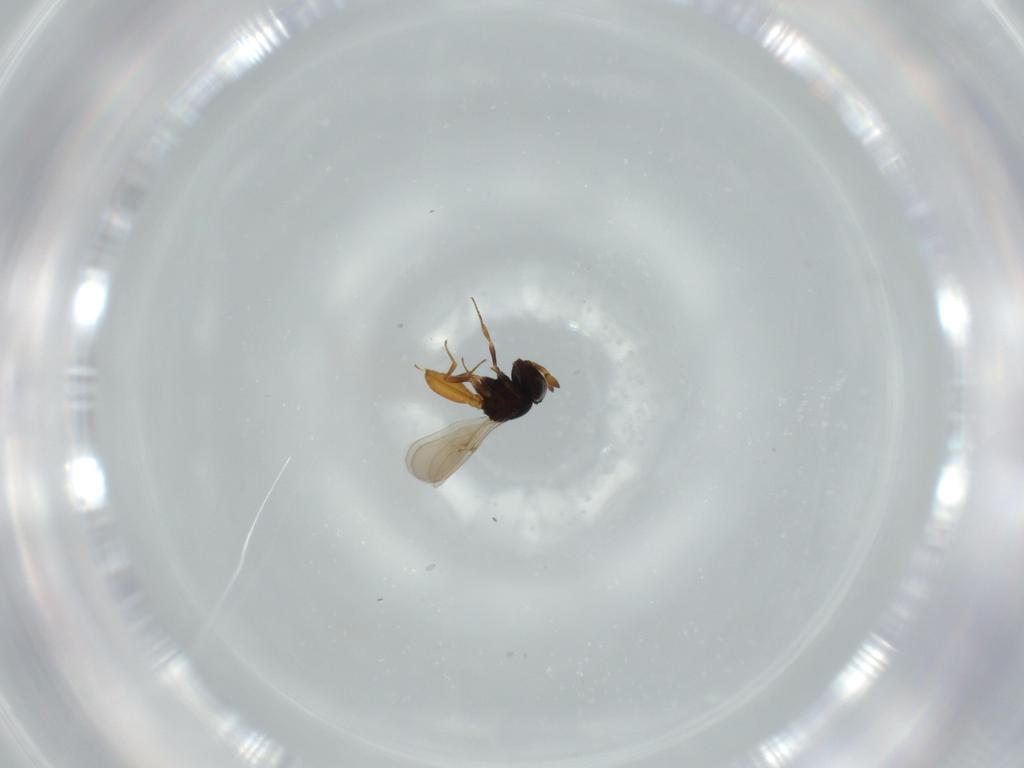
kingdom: Animalia
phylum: Arthropoda
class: Insecta
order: Hymenoptera
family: Scelionidae
